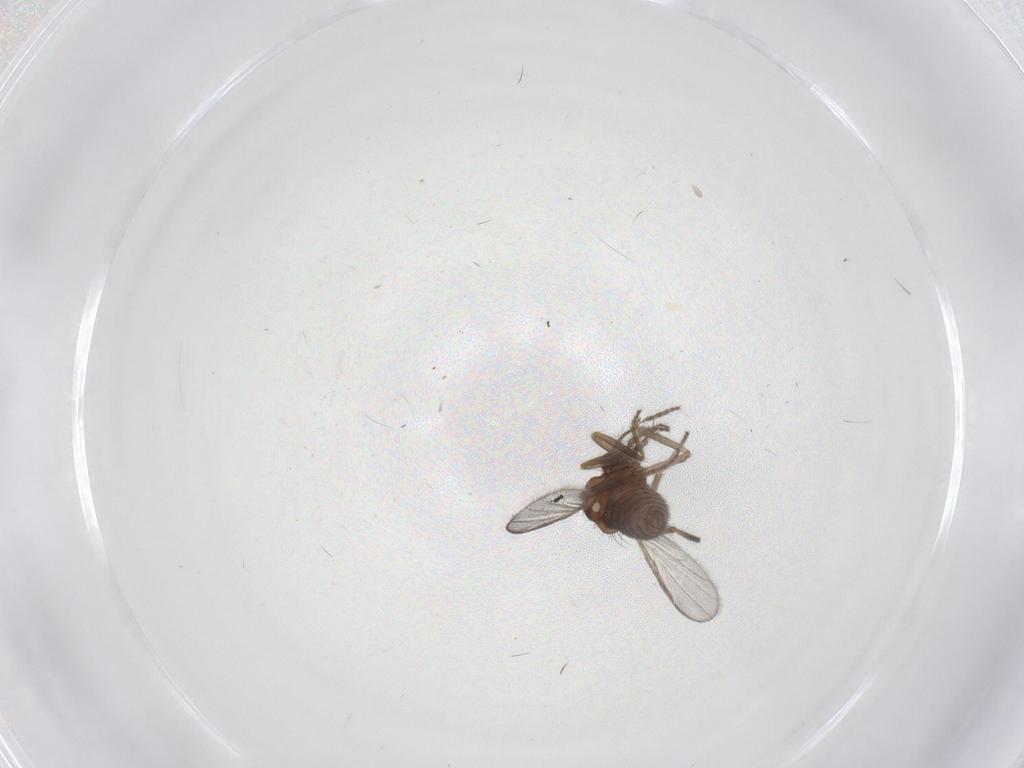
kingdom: Animalia
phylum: Arthropoda
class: Insecta
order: Diptera
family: Ceratopogonidae
